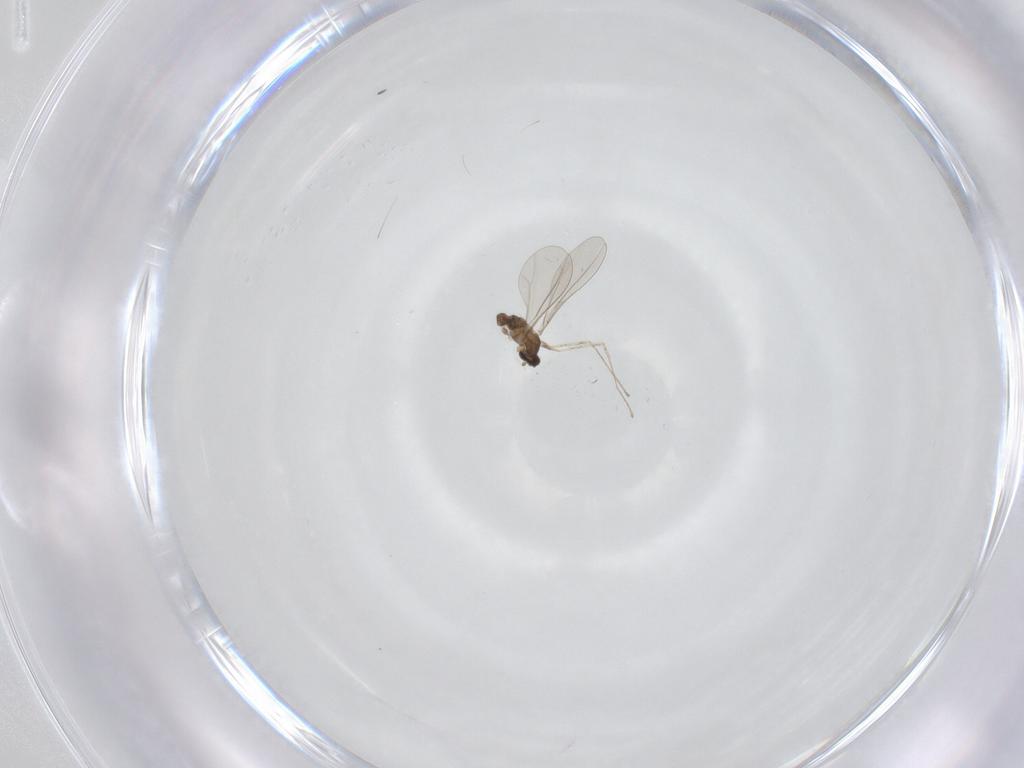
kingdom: Animalia
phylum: Arthropoda
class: Insecta
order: Diptera
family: Cecidomyiidae
